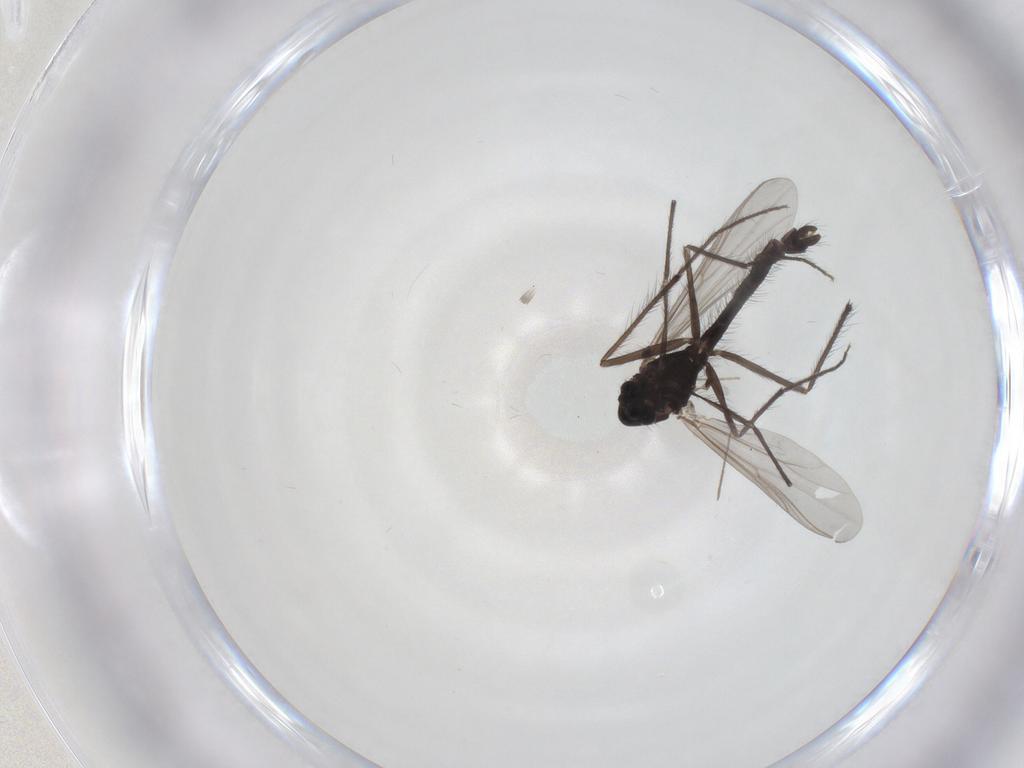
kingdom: Animalia
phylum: Arthropoda
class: Insecta
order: Diptera
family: Chironomidae
